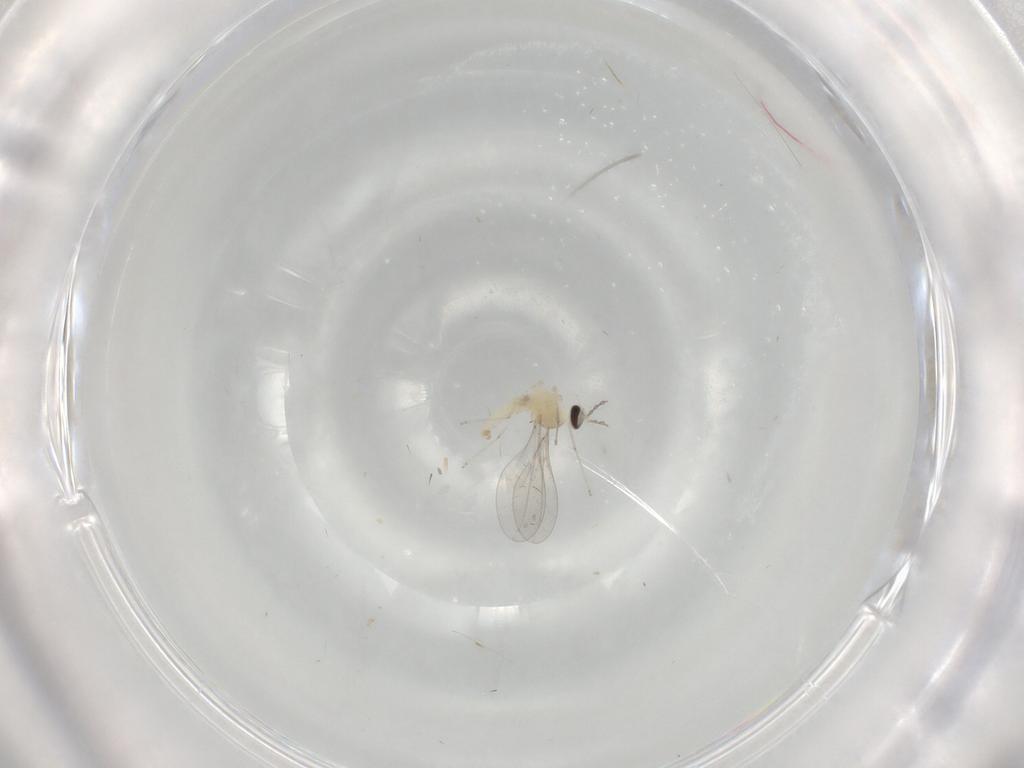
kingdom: Animalia
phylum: Arthropoda
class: Insecta
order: Diptera
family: Cecidomyiidae
